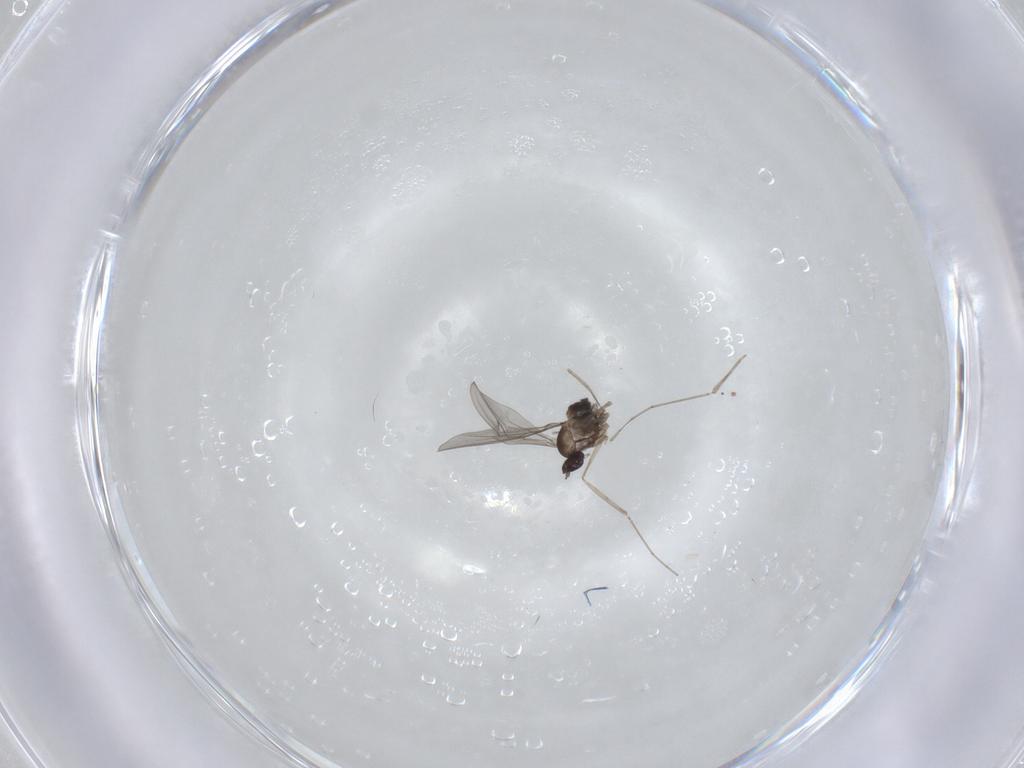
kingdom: Animalia
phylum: Arthropoda
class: Insecta
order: Diptera
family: Cecidomyiidae
